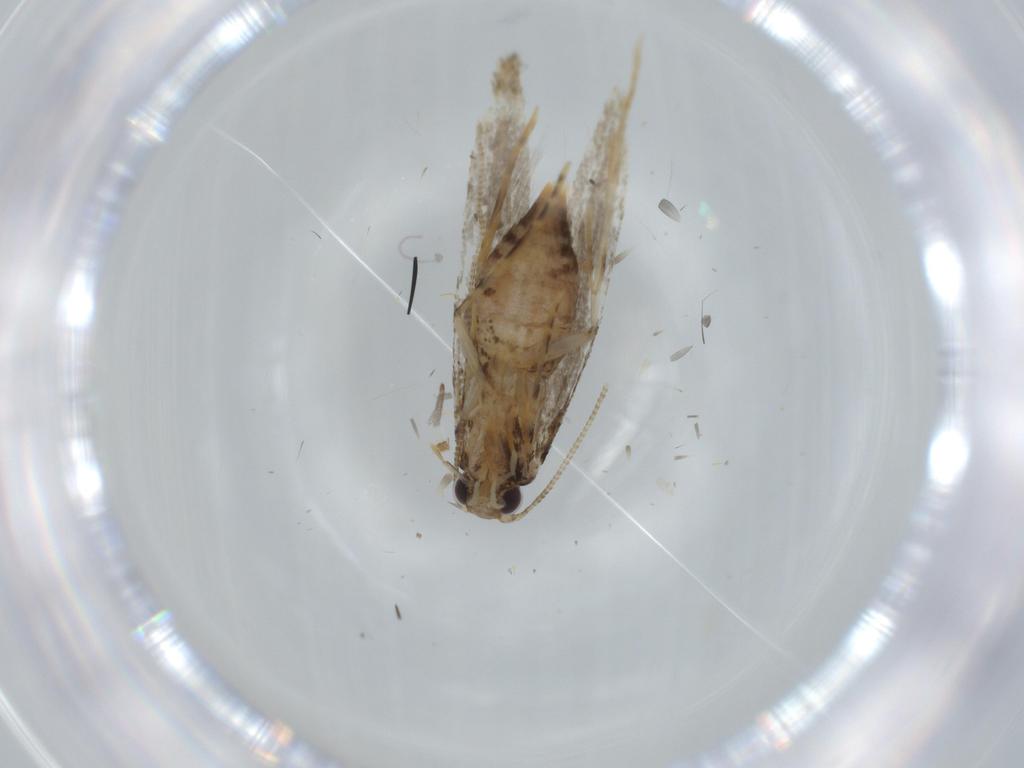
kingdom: Animalia
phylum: Arthropoda
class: Insecta
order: Lepidoptera
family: Tineidae
